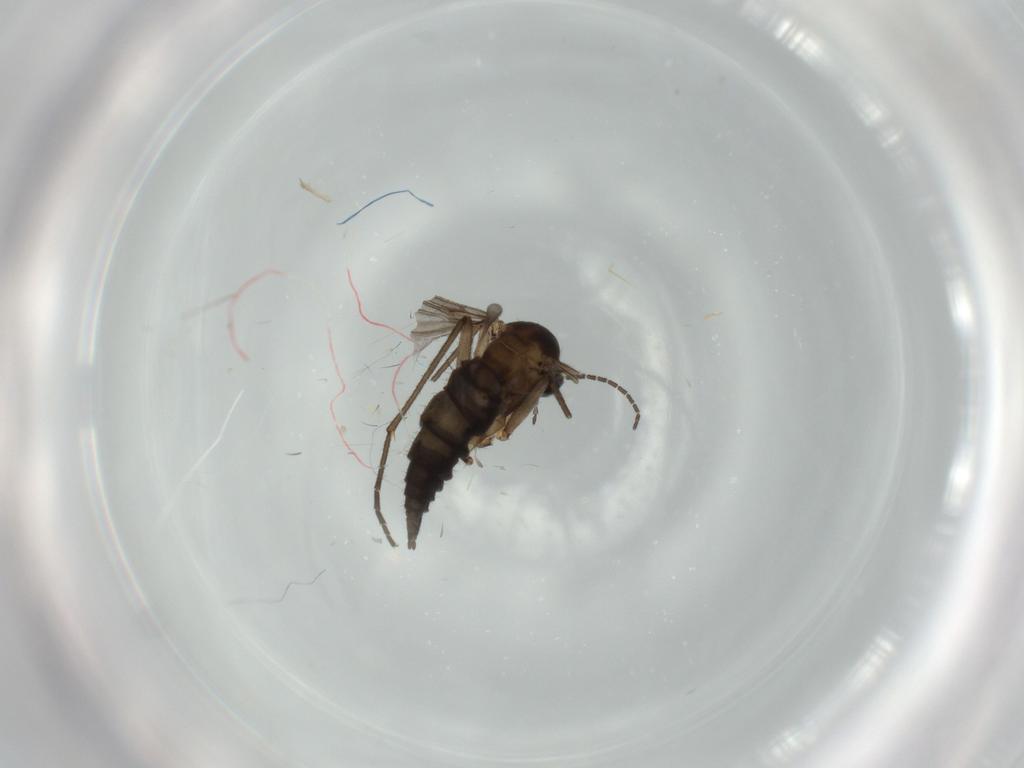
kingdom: Animalia
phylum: Arthropoda
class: Insecta
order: Diptera
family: Sciaridae
